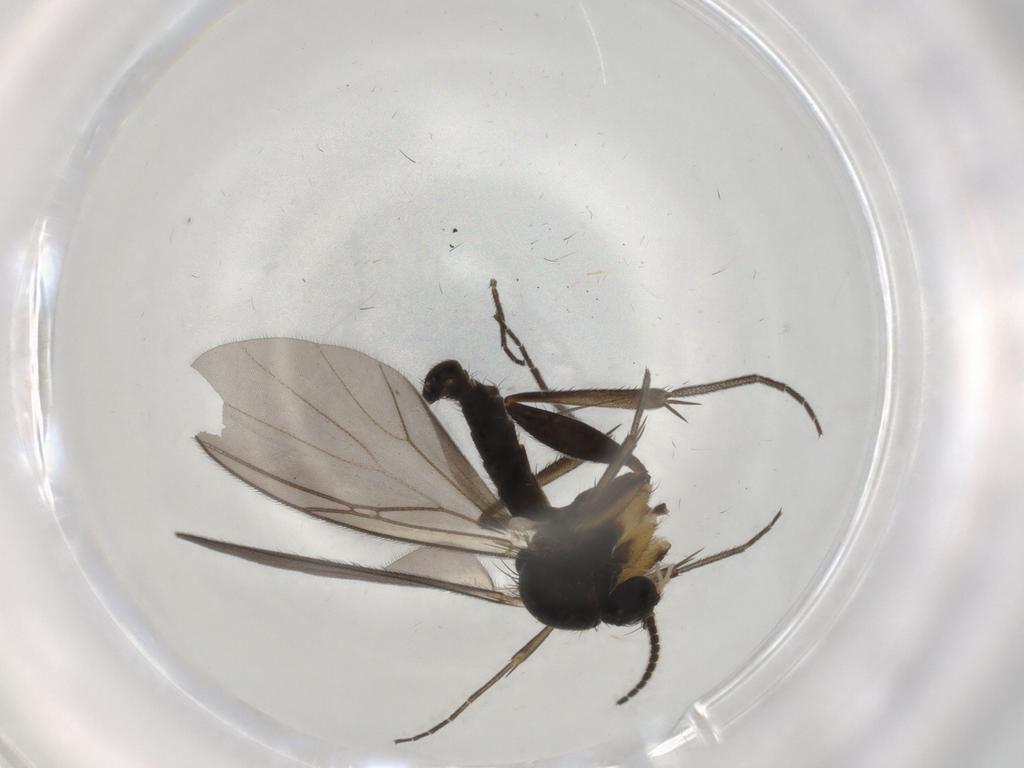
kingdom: Animalia
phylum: Arthropoda
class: Insecta
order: Diptera
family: Mycetophilidae
